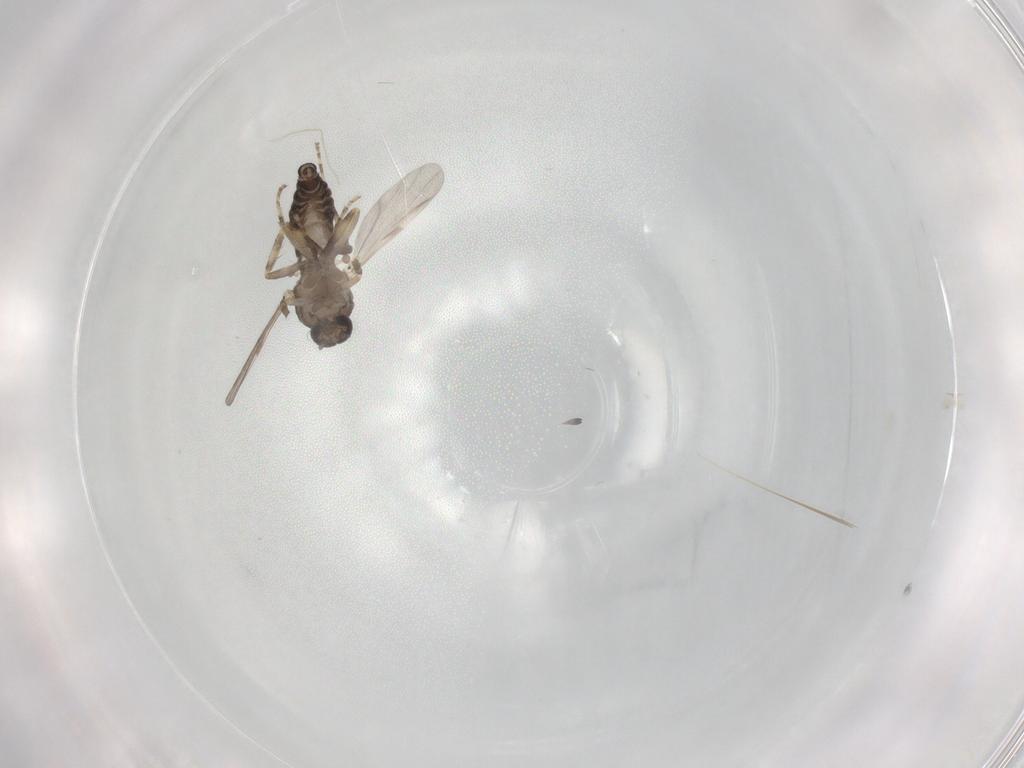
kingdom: Animalia
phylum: Arthropoda
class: Insecta
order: Diptera
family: Ceratopogonidae
